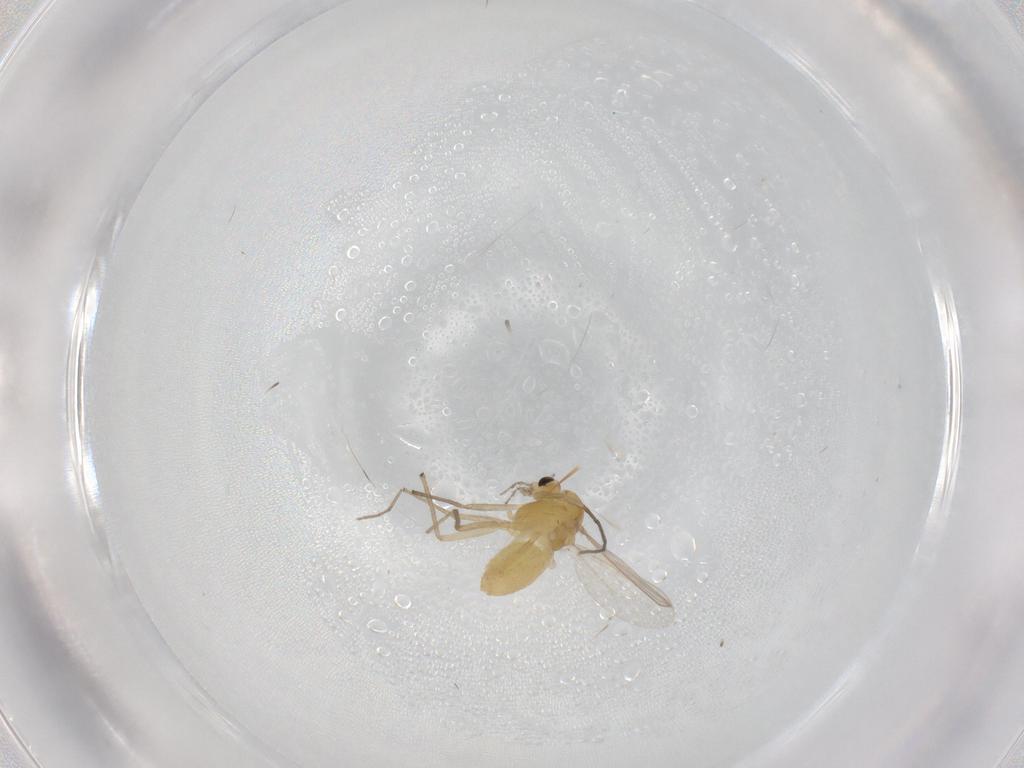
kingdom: Animalia
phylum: Arthropoda
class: Insecta
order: Diptera
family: Chironomidae
